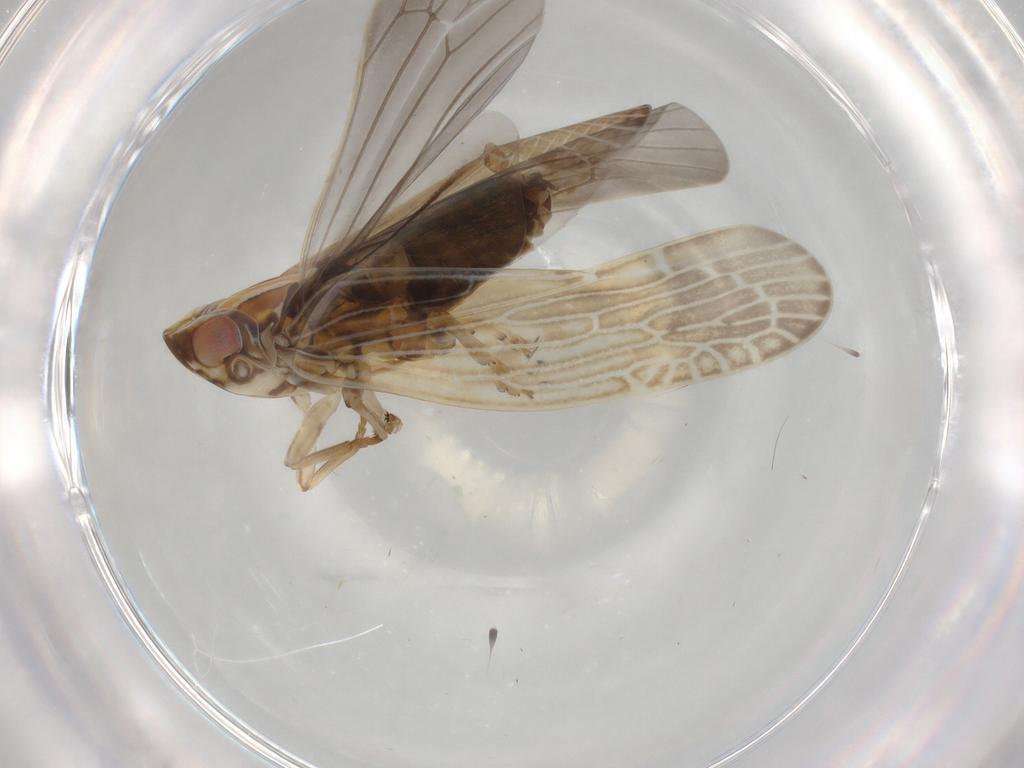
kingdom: Animalia
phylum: Arthropoda
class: Insecta
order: Hemiptera
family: Achilidae
